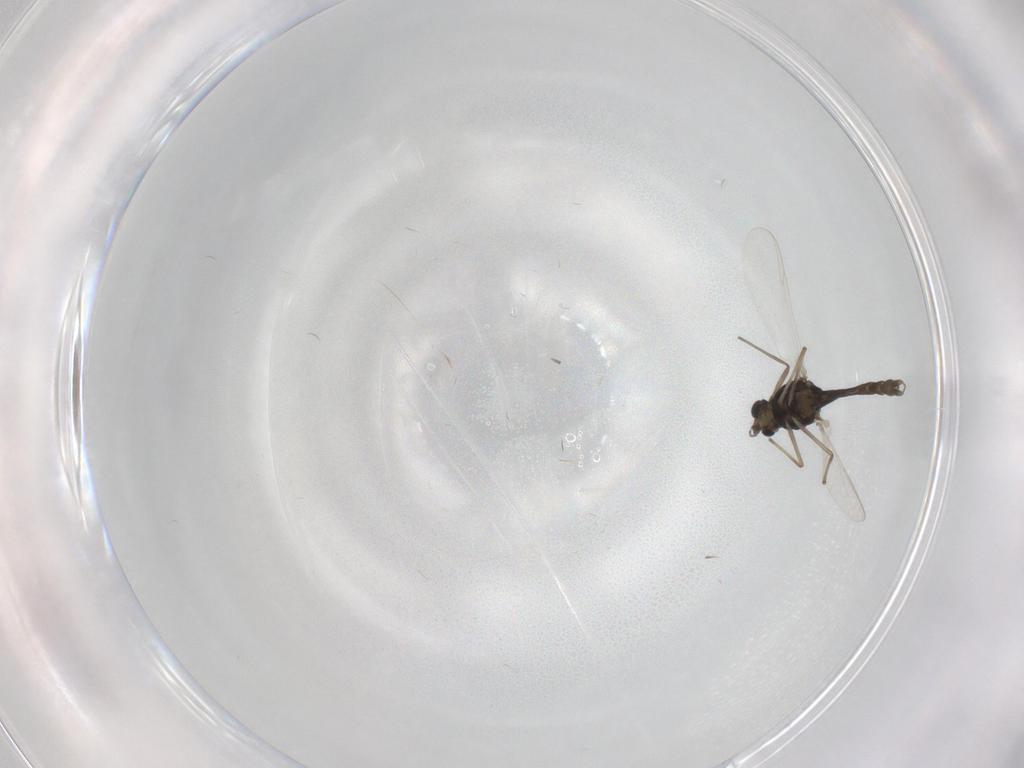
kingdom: Animalia
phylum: Arthropoda
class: Insecta
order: Diptera
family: Chironomidae
